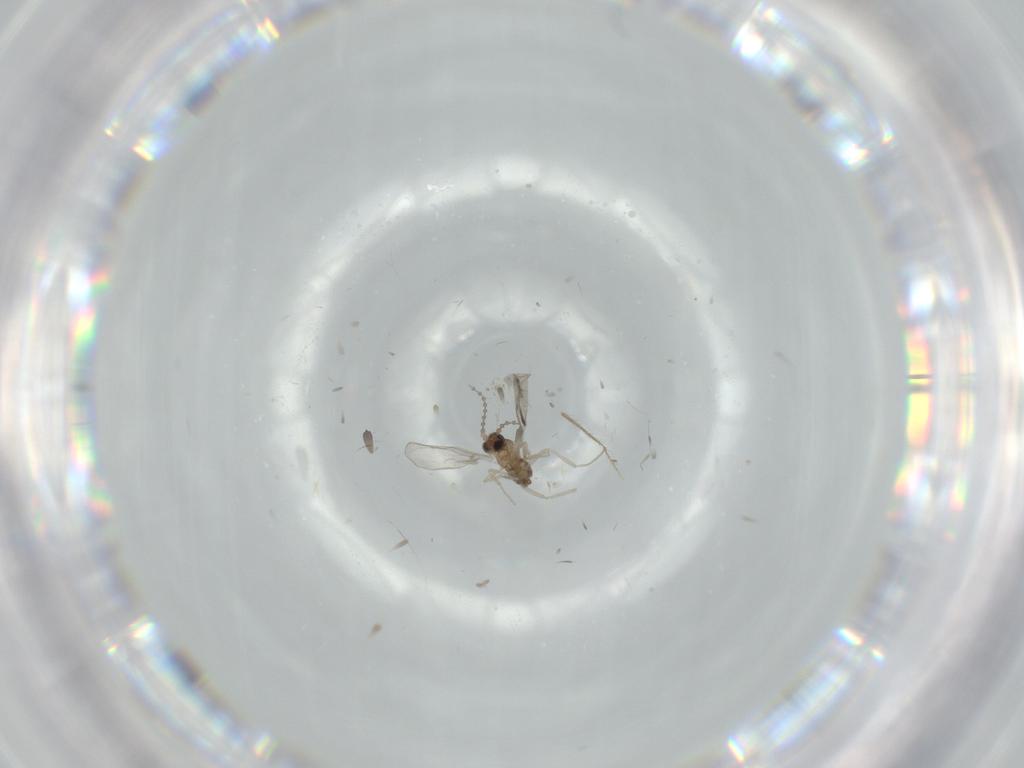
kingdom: Animalia
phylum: Arthropoda
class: Insecta
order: Diptera
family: Cecidomyiidae
